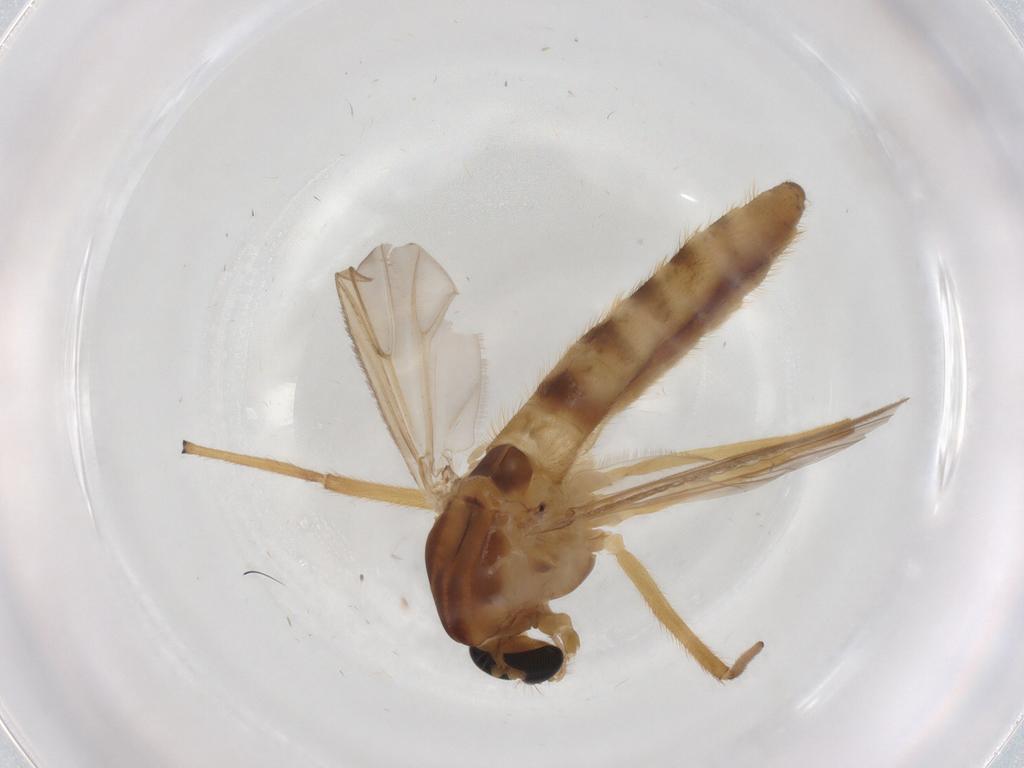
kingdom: Animalia
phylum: Arthropoda
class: Insecta
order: Diptera
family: Chironomidae
